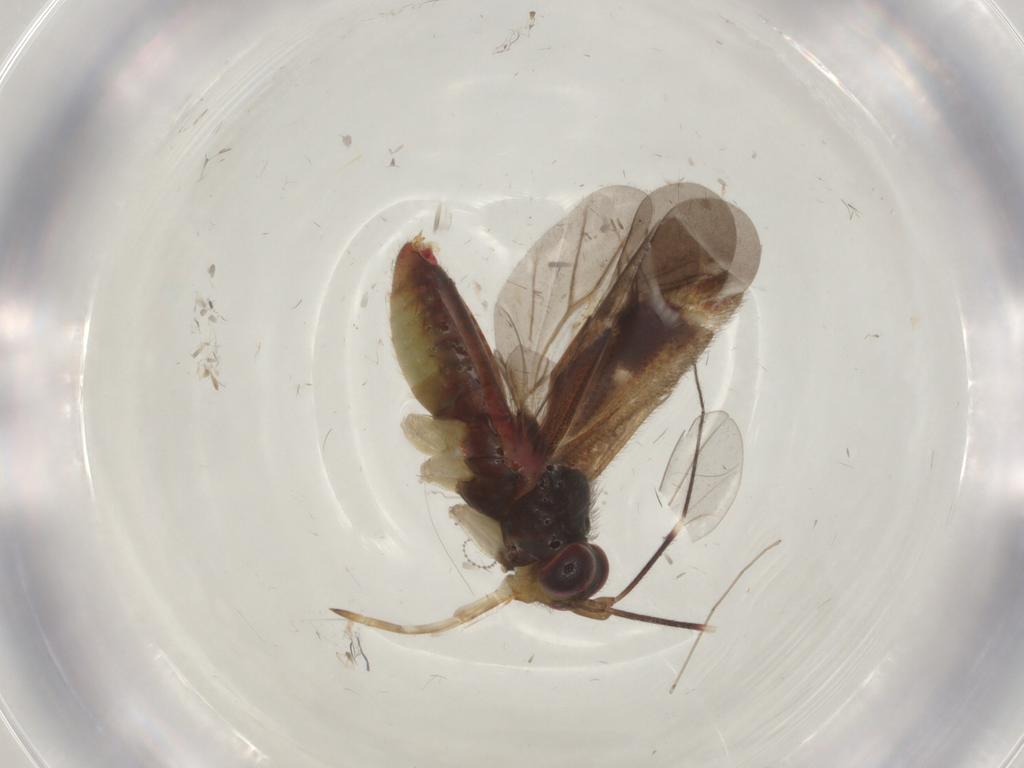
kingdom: Animalia
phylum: Arthropoda
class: Insecta
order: Hemiptera
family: Miridae
